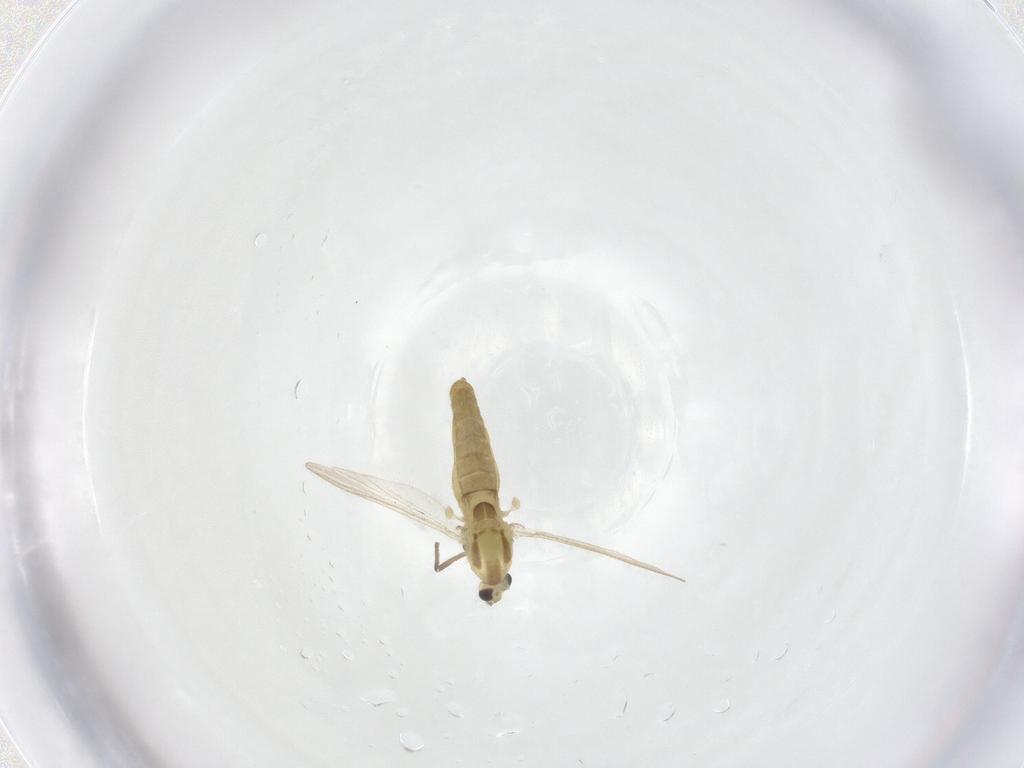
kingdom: Animalia
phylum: Arthropoda
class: Insecta
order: Diptera
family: Chironomidae
